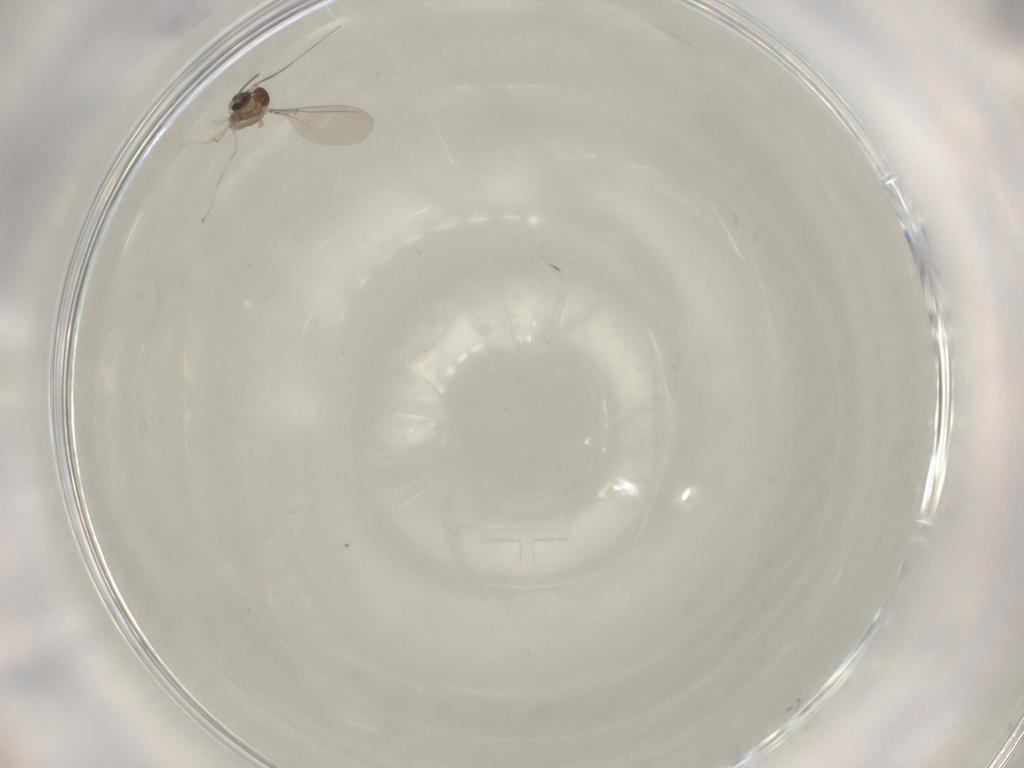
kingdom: Animalia
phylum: Arthropoda
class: Insecta
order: Diptera
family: Cecidomyiidae
